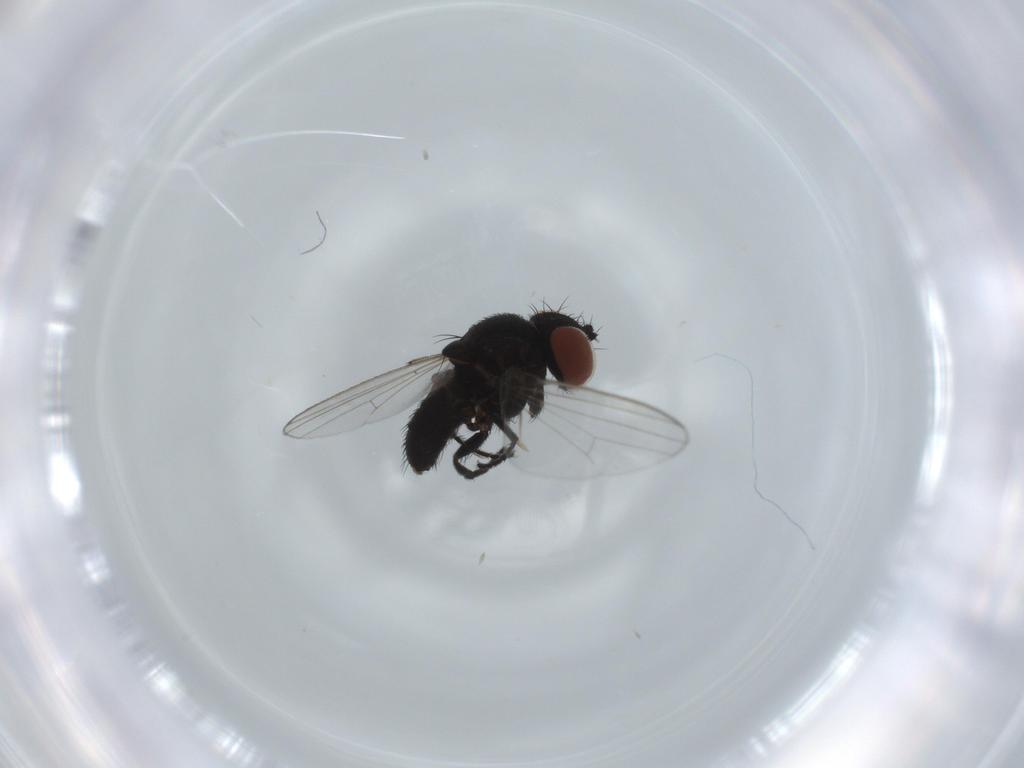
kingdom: Animalia
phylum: Arthropoda
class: Insecta
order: Diptera
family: Sciaridae
